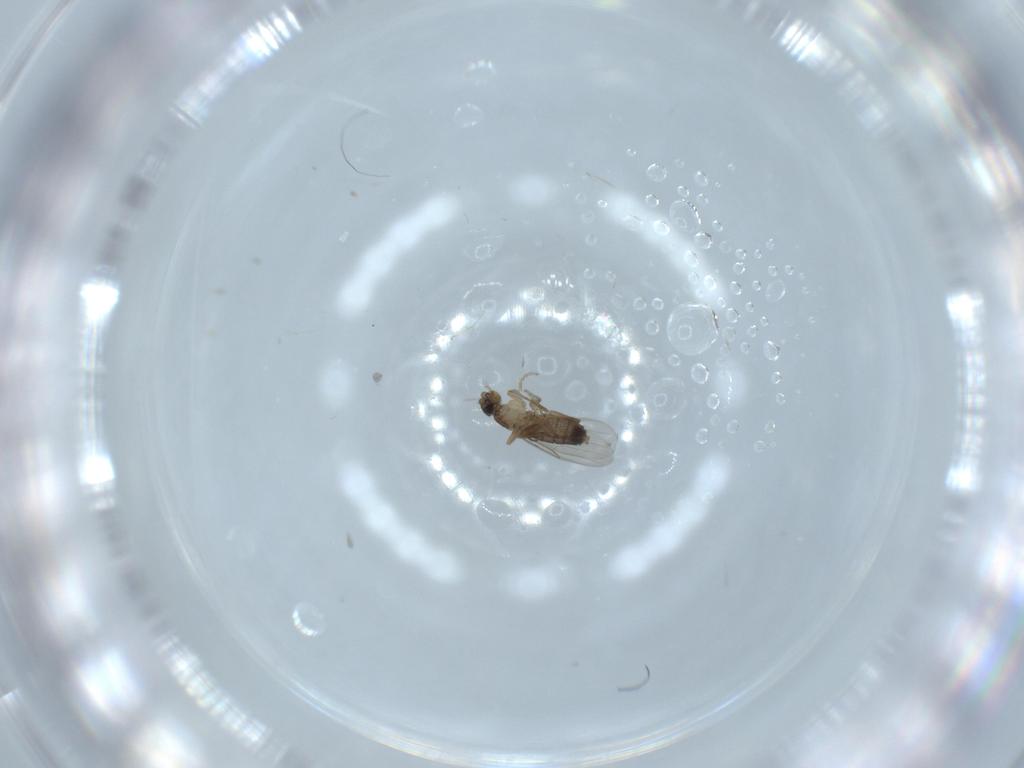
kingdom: Animalia
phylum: Arthropoda
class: Insecta
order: Diptera
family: Phoridae
